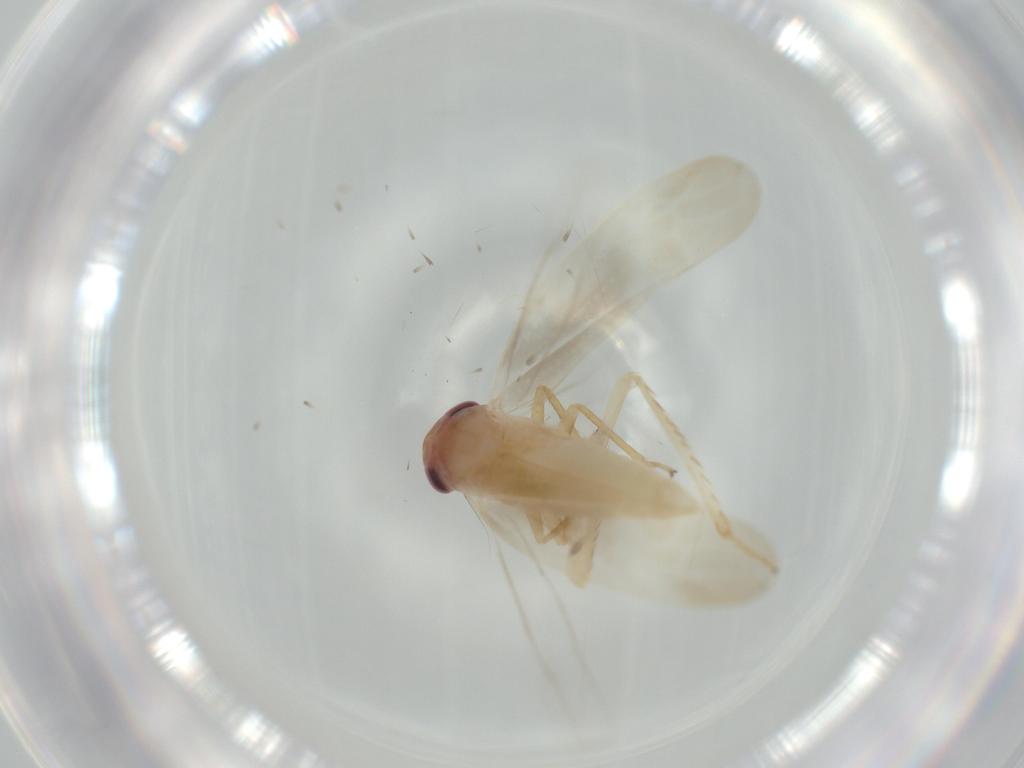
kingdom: Animalia
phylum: Arthropoda
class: Insecta
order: Hemiptera
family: Cicadellidae
